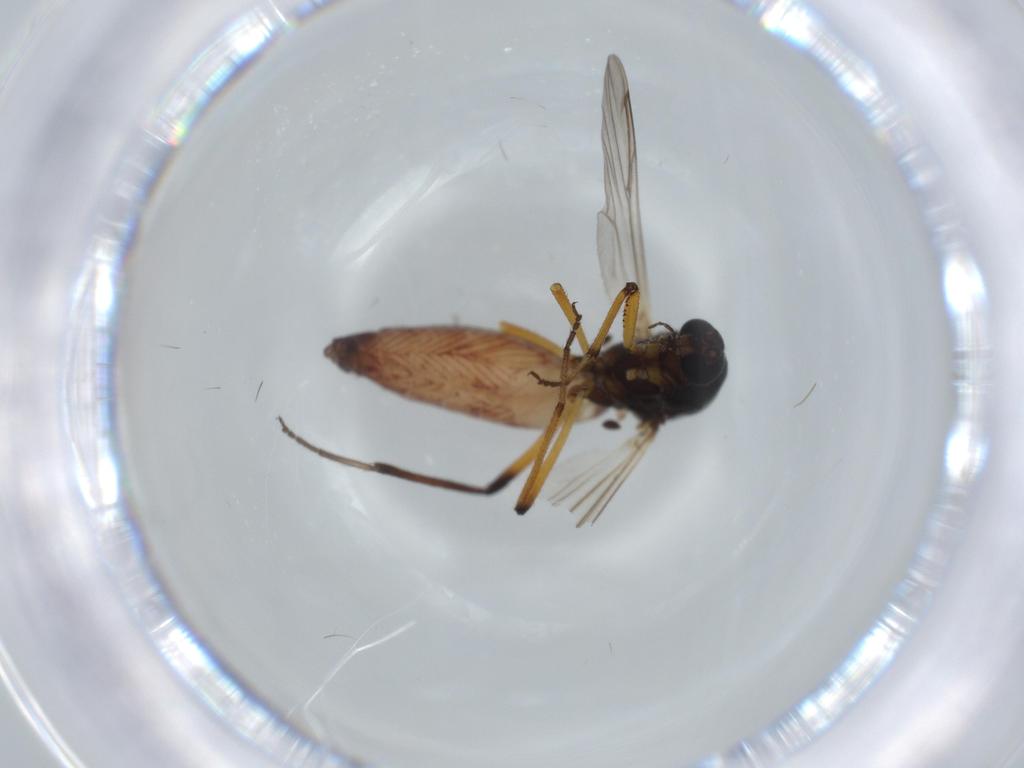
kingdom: Animalia
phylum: Arthropoda
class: Insecta
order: Diptera
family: Ceratopogonidae
